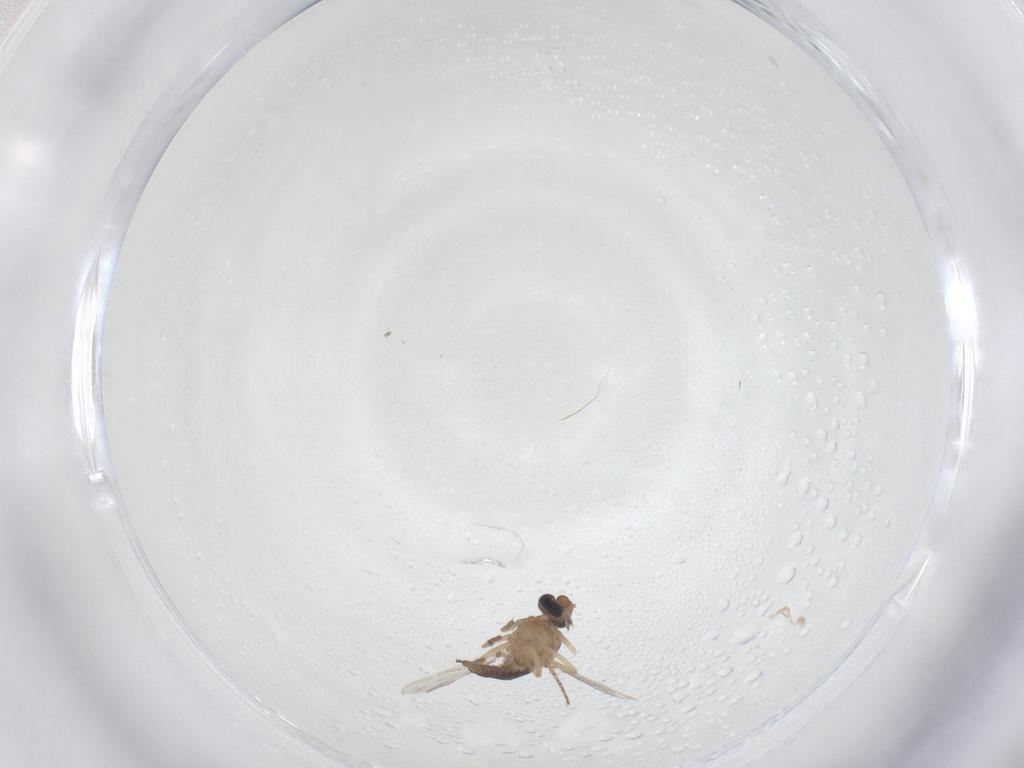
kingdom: Animalia
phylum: Arthropoda
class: Insecta
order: Diptera
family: Ceratopogonidae
